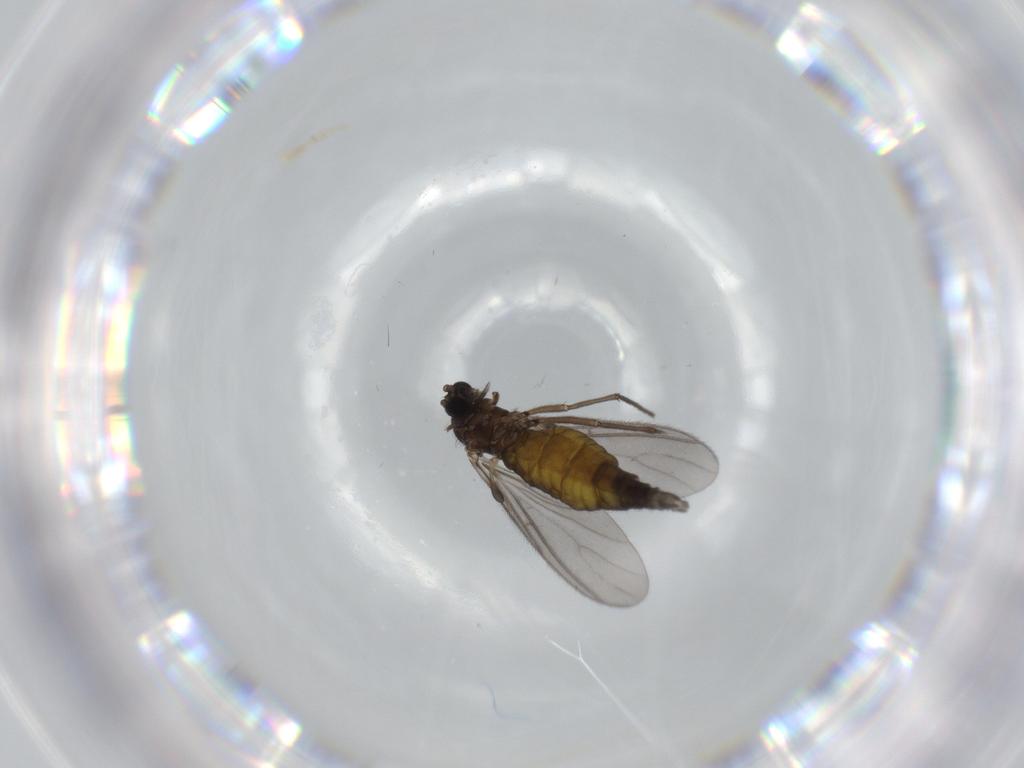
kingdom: Animalia
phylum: Arthropoda
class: Insecta
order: Diptera
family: Sciaridae
